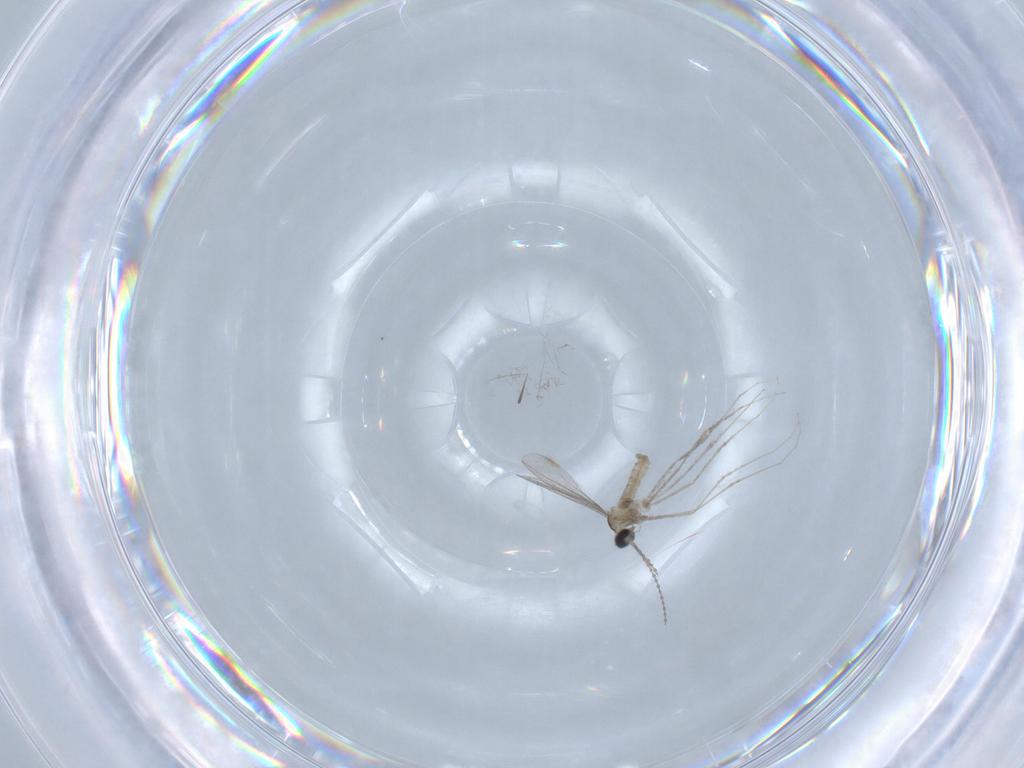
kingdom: Animalia
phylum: Arthropoda
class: Insecta
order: Diptera
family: Cecidomyiidae
